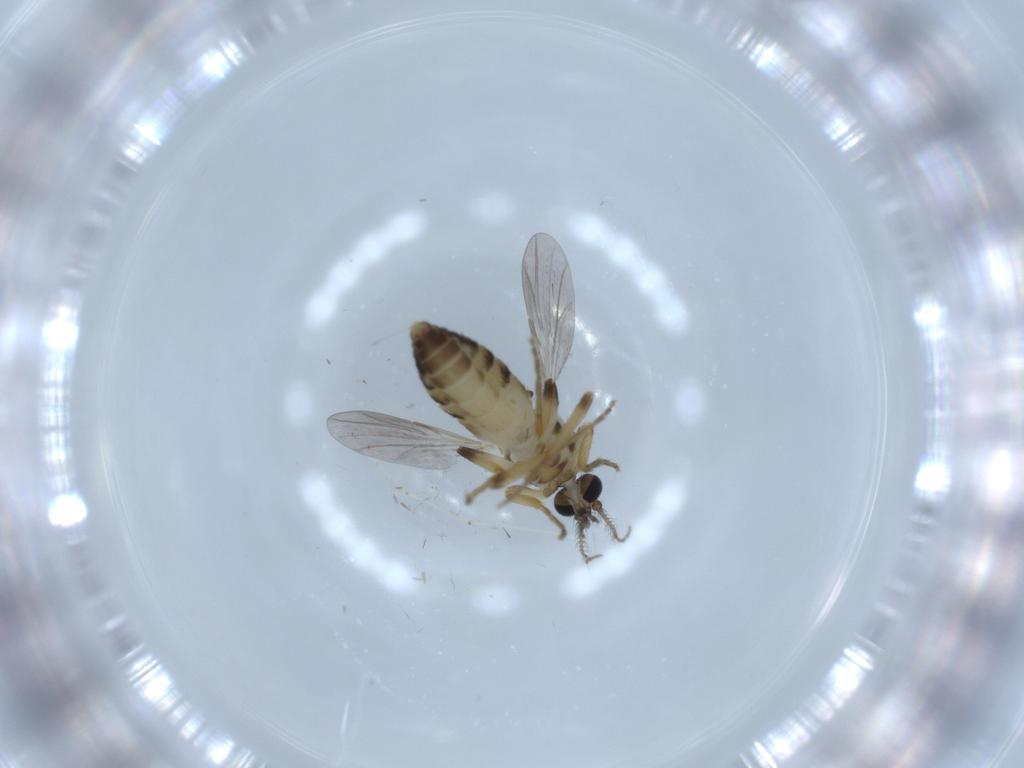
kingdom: Animalia
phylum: Arthropoda
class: Insecta
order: Diptera
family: Ceratopogonidae
